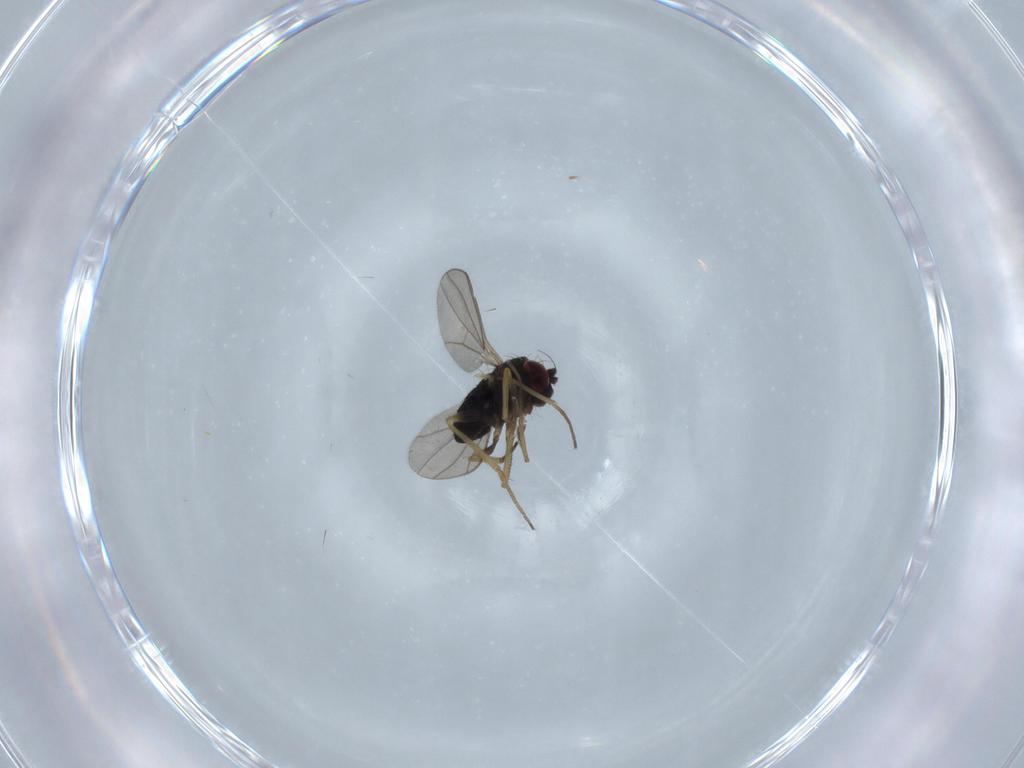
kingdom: Animalia
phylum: Arthropoda
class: Insecta
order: Diptera
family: Dolichopodidae
